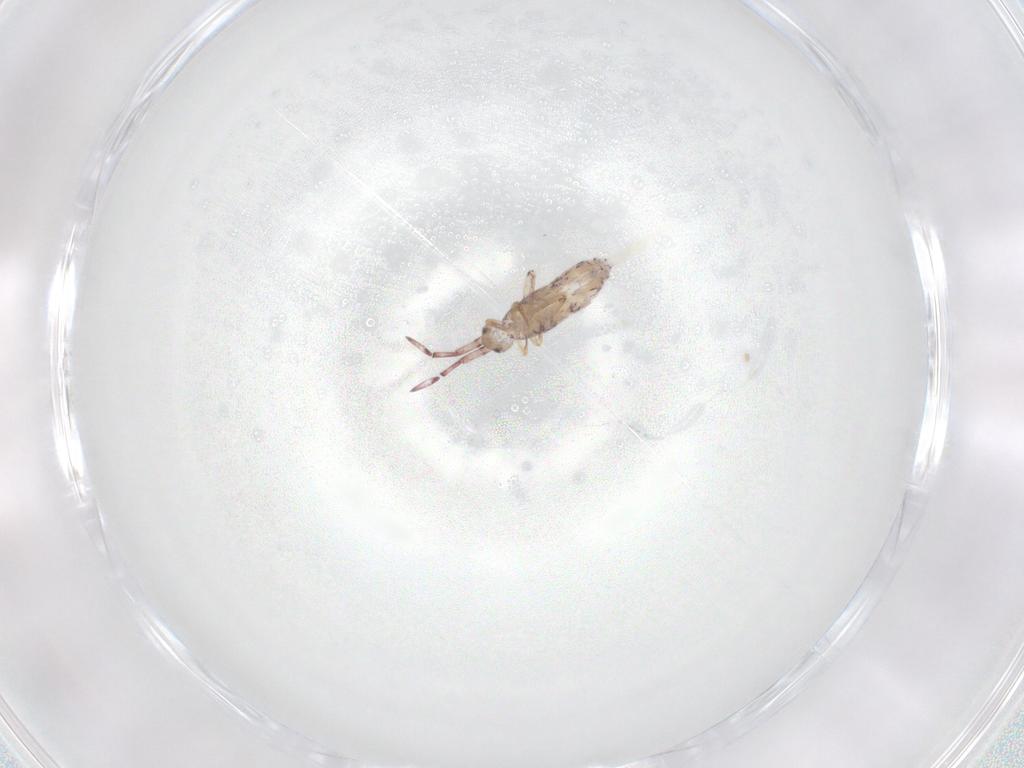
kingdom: Animalia
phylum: Arthropoda
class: Collembola
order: Entomobryomorpha
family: Entomobryidae
